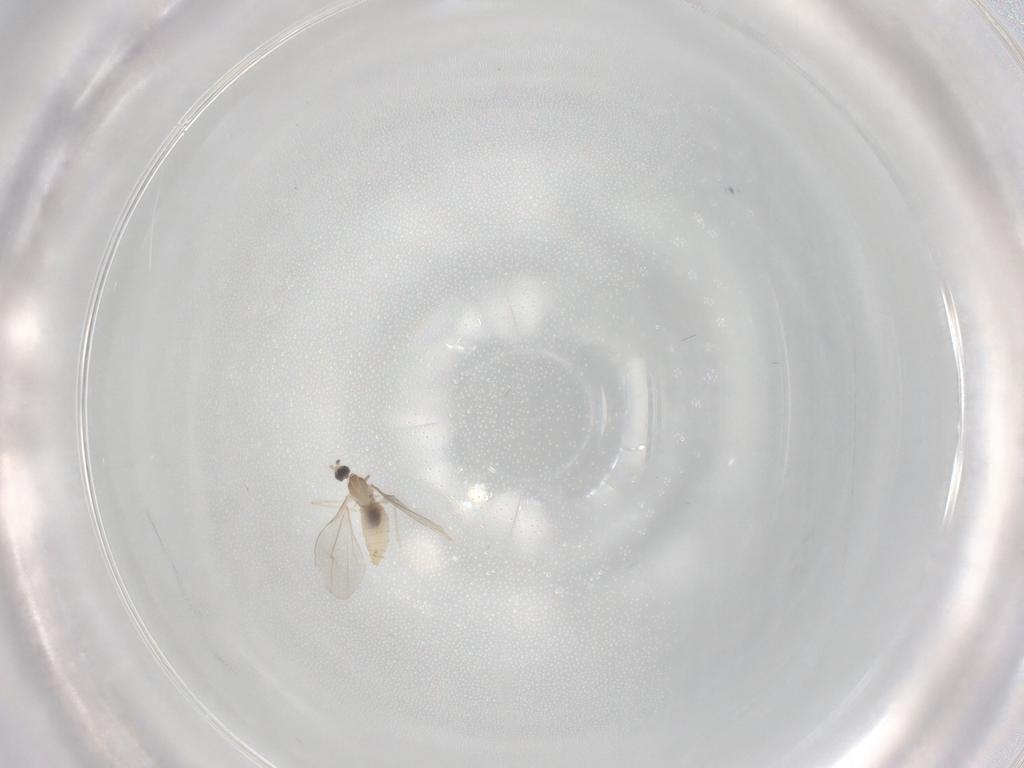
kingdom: Animalia
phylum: Arthropoda
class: Insecta
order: Diptera
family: Cecidomyiidae
